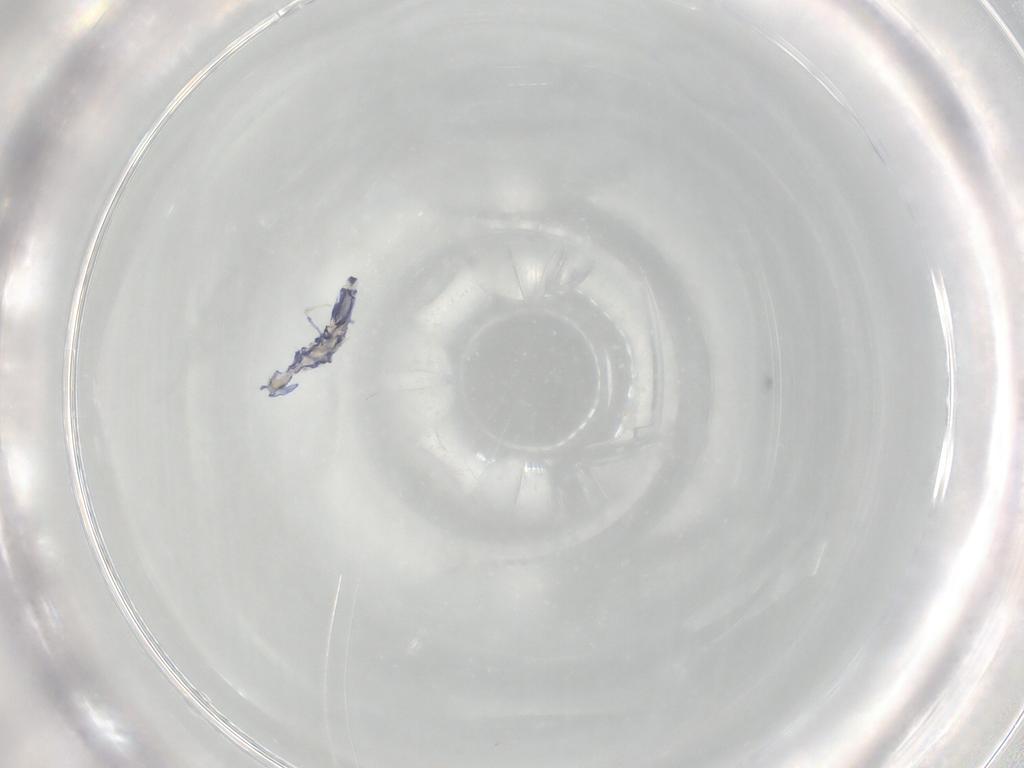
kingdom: Animalia
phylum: Arthropoda
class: Collembola
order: Entomobryomorpha
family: Entomobryidae
